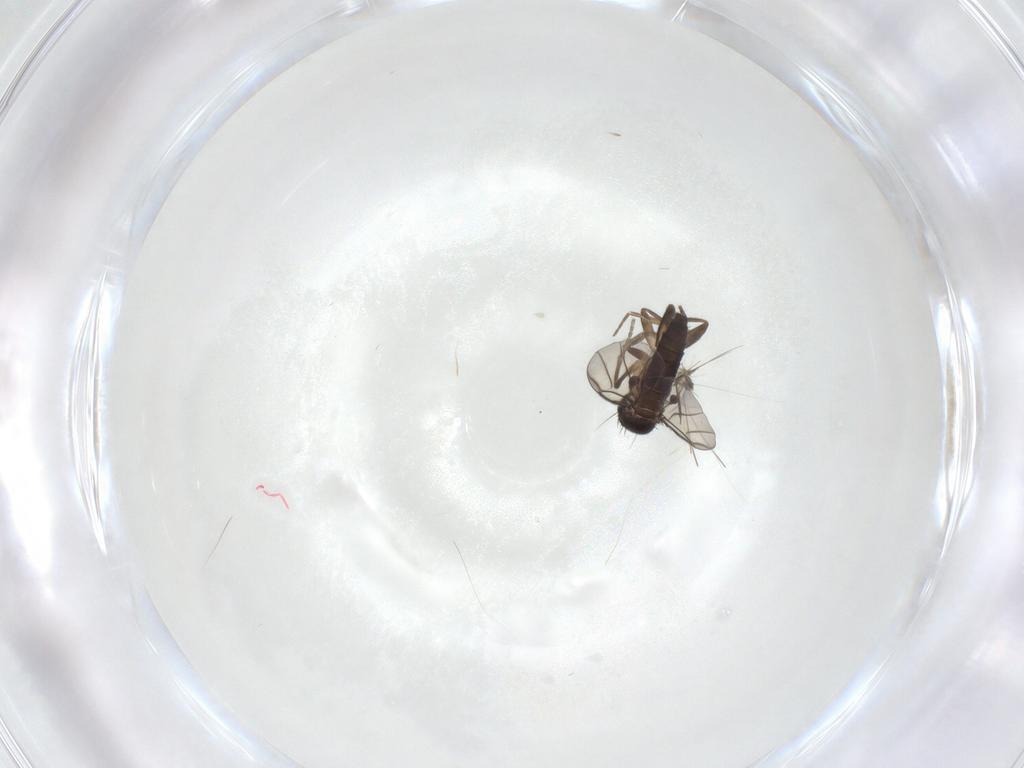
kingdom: Animalia
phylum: Arthropoda
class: Insecta
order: Diptera
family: Phoridae
